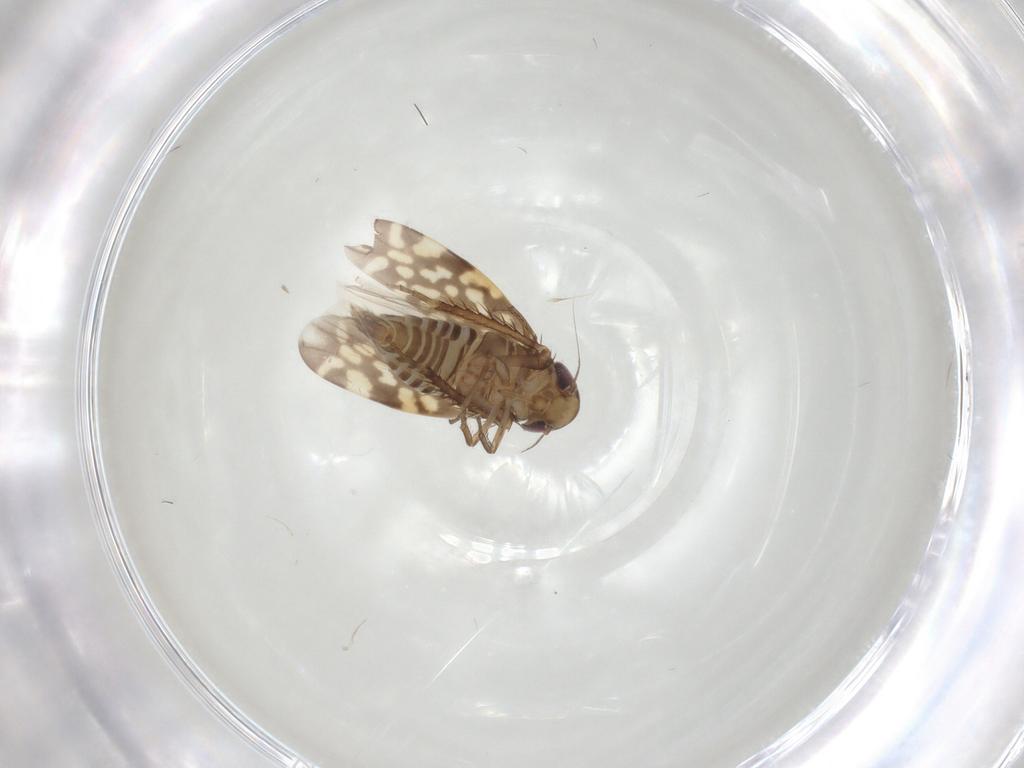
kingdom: Animalia
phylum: Arthropoda
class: Insecta
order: Hemiptera
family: Cicadellidae
